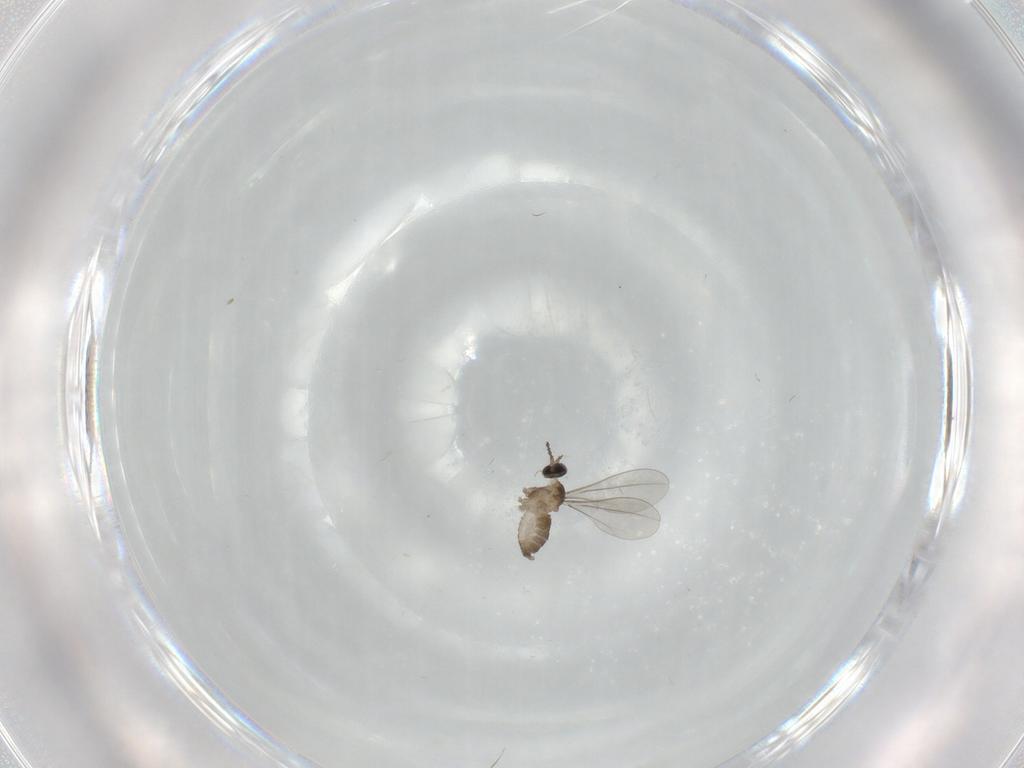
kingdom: Animalia
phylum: Arthropoda
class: Insecta
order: Diptera
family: Cecidomyiidae
